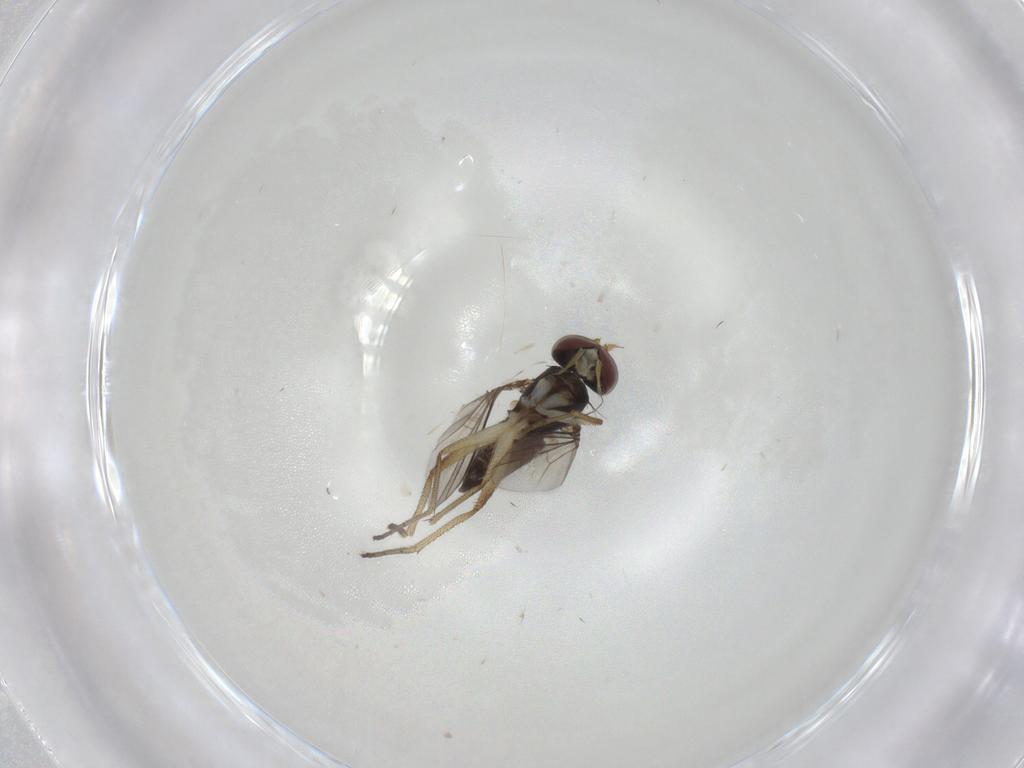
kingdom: Animalia
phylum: Arthropoda
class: Insecta
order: Diptera
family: Dolichopodidae
